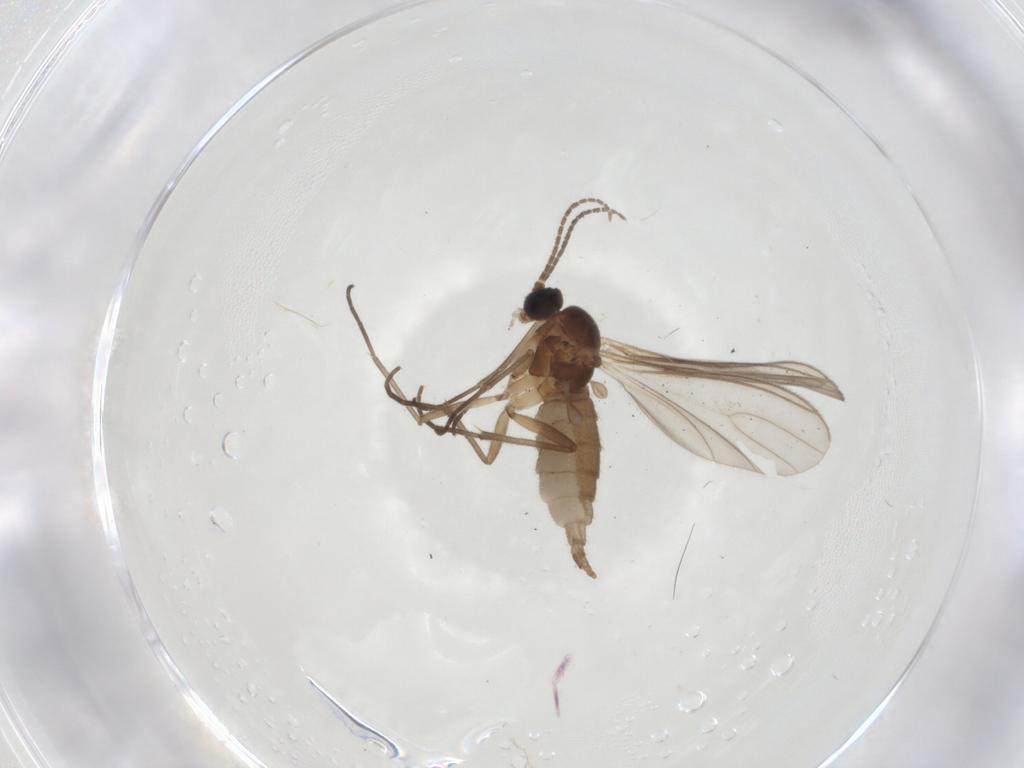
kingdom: Animalia
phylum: Arthropoda
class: Insecta
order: Diptera
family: Sciaridae
